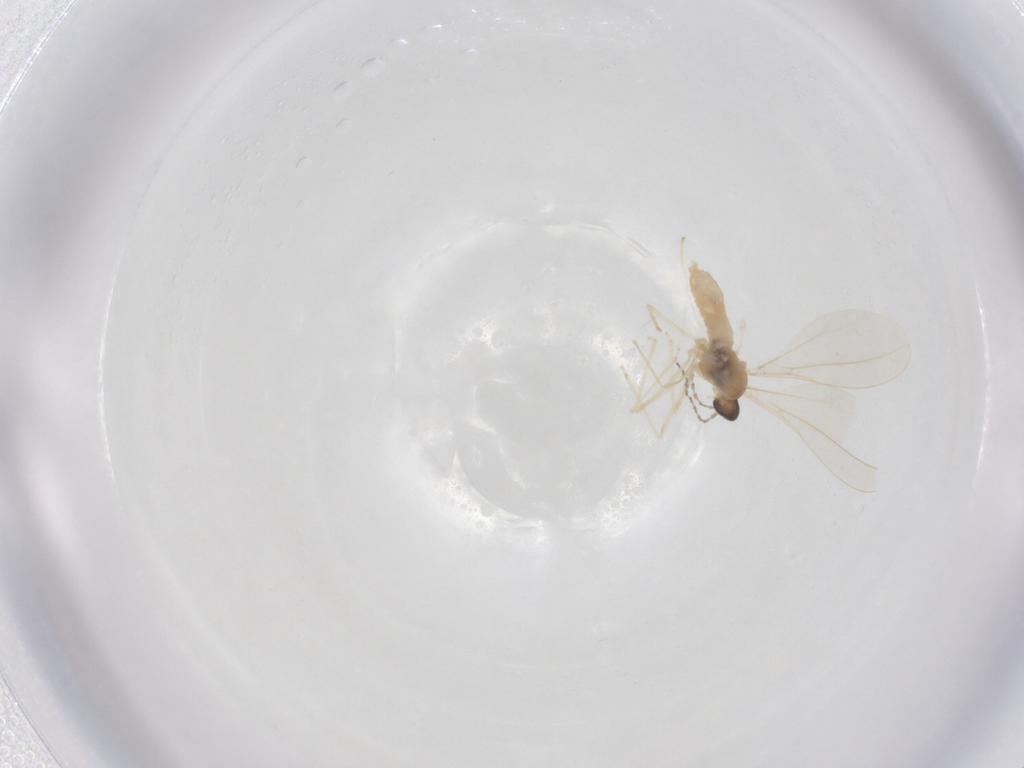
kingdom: Animalia
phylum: Arthropoda
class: Insecta
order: Diptera
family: Cecidomyiidae
